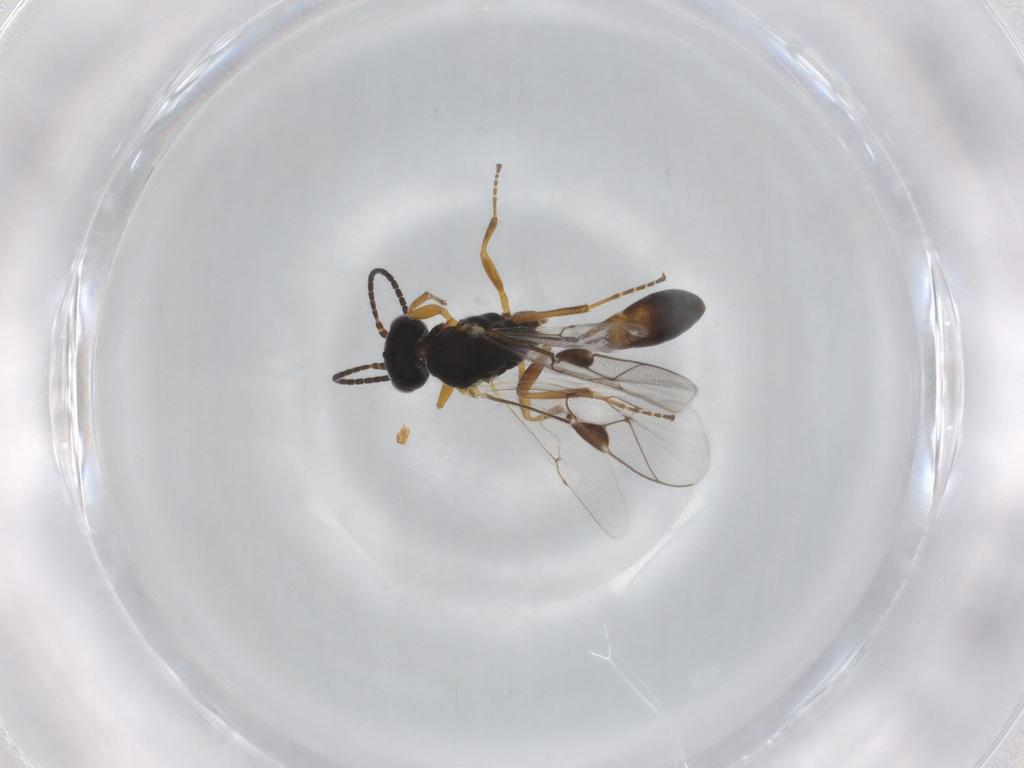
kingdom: Animalia
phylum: Arthropoda
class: Insecta
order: Hymenoptera
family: Ichneumonidae
